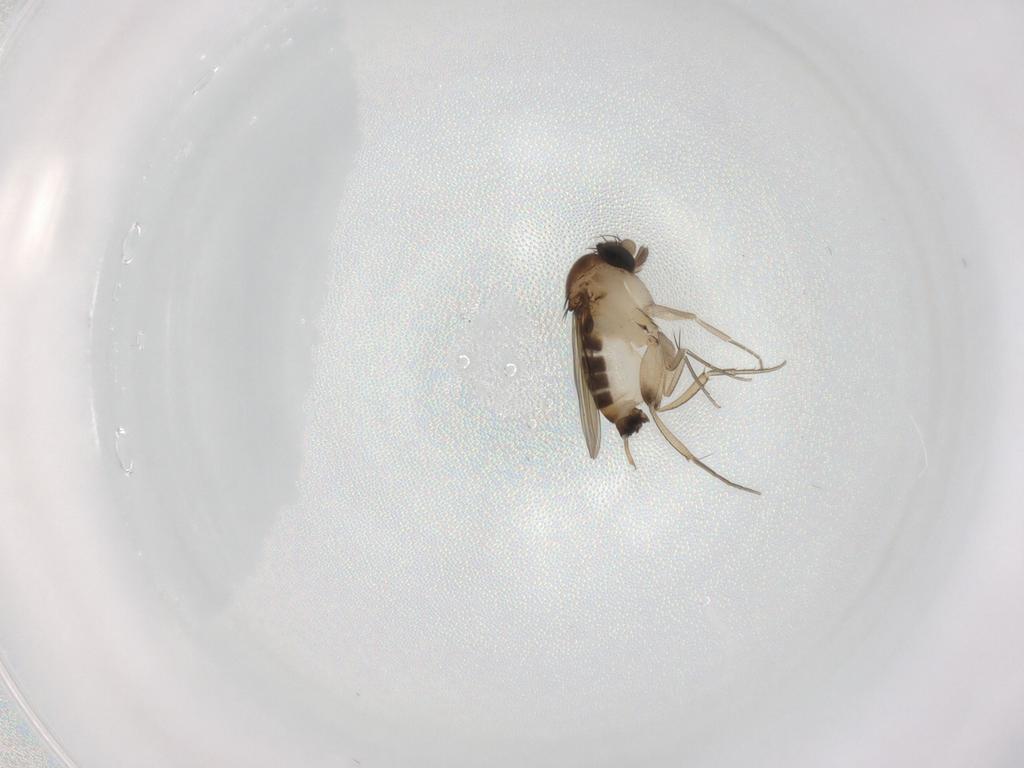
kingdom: Animalia
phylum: Arthropoda
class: Insecta
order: Diptera
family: Phoridae
